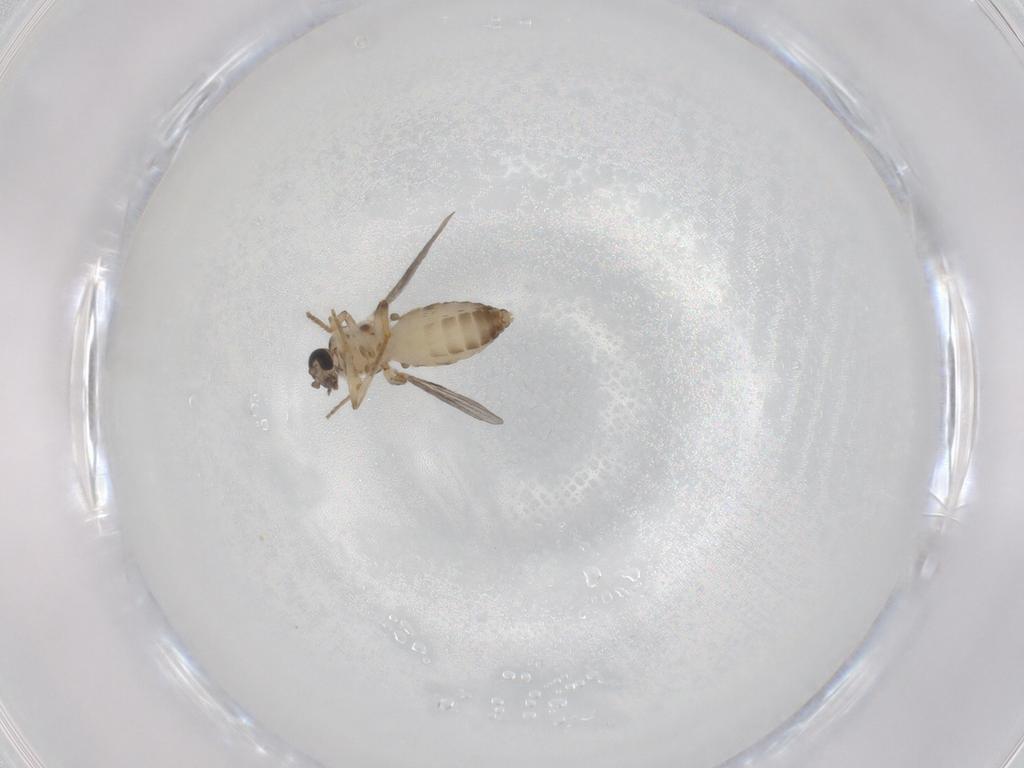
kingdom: Animalia
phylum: Arthropoda
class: Insecta
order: Diptera
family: Ceratopogonidae
